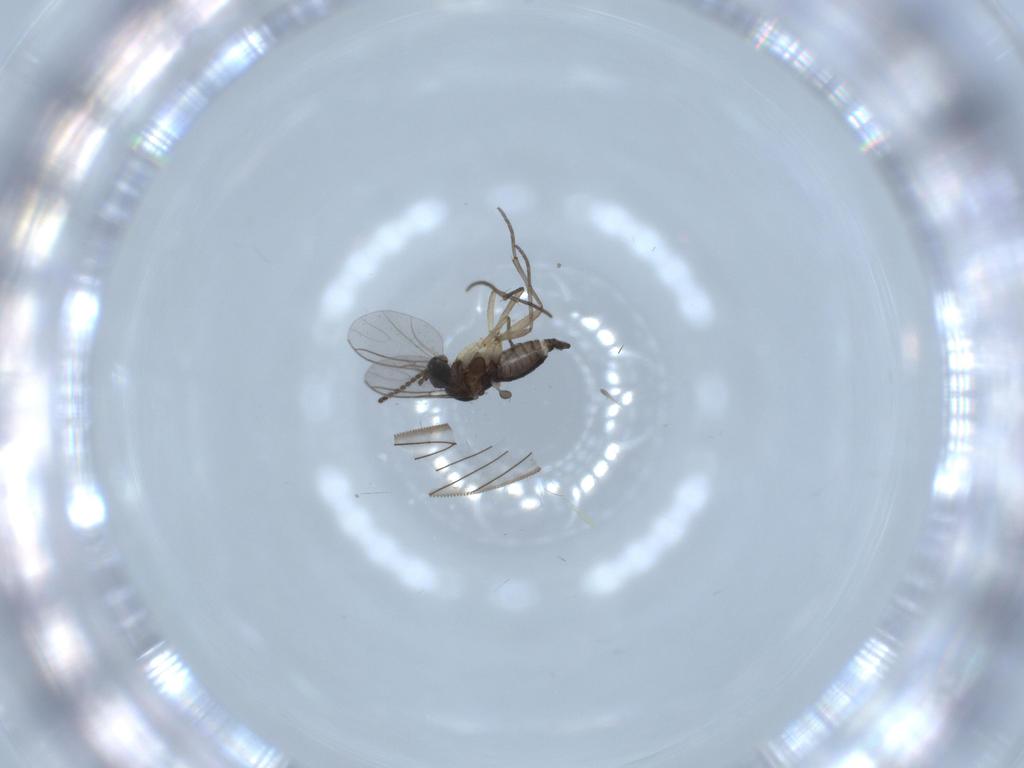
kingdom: Animalia
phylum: Arthropoda
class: Insecta
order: Diptera
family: Sciaridae
